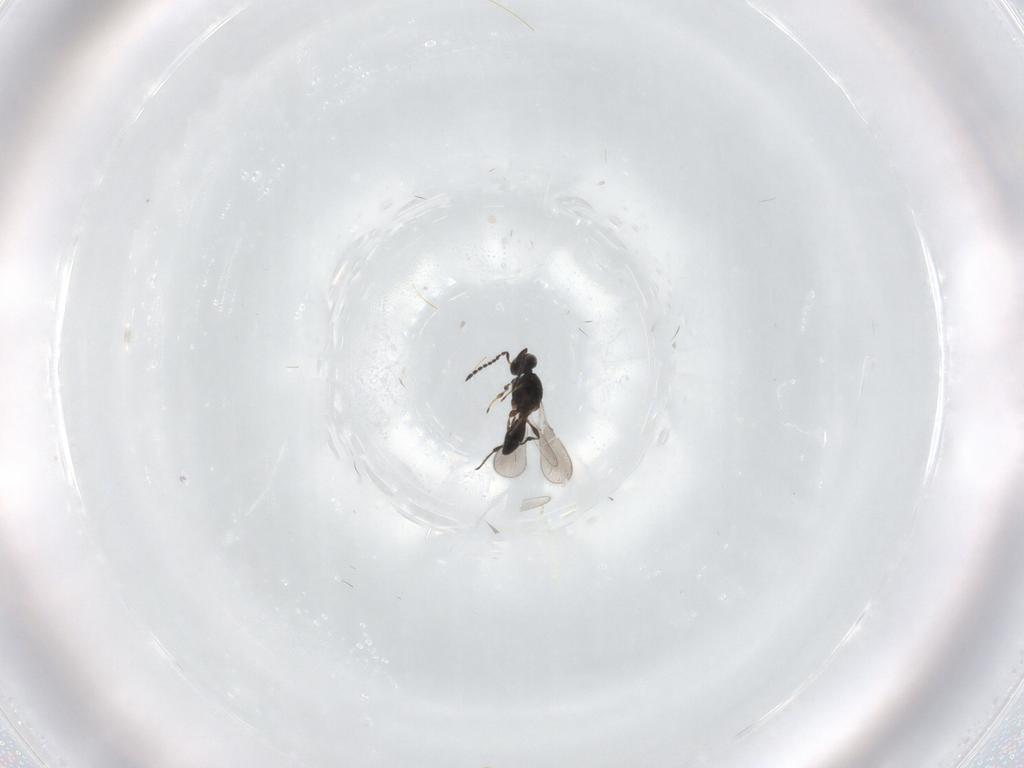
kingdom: Animalia
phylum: Arthropoda
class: Insecta
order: Hymenoptera
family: Platygastridae
